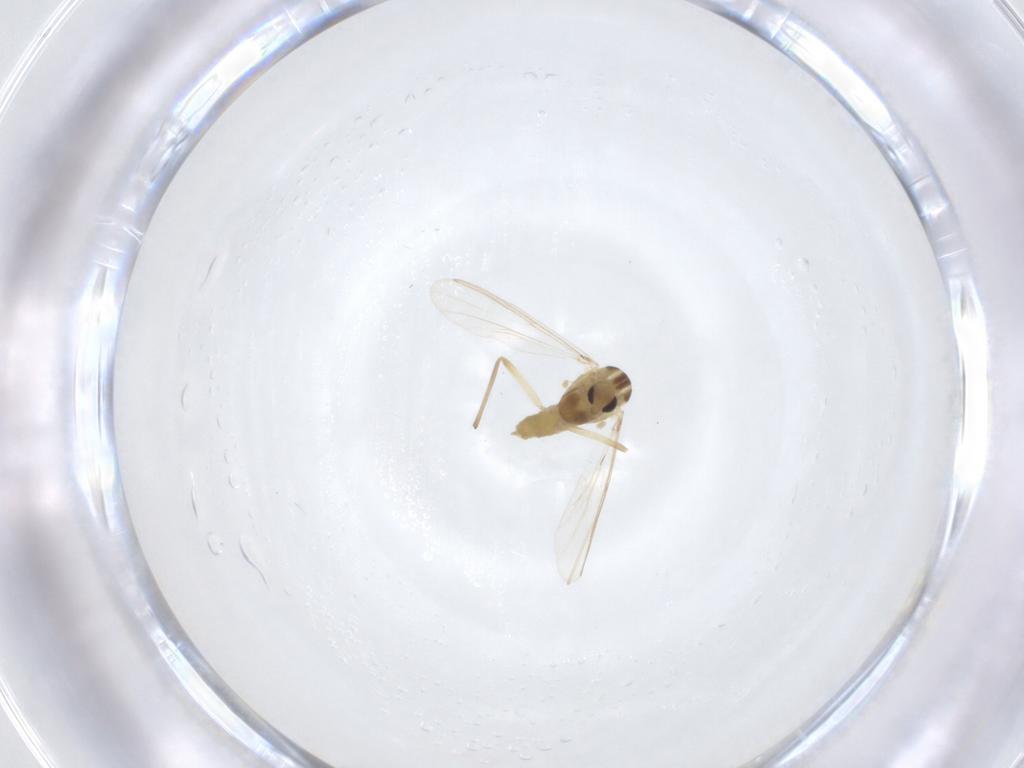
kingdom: Animalia
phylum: Arthropoda
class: Insecta
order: Diptera
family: Chironomidae
